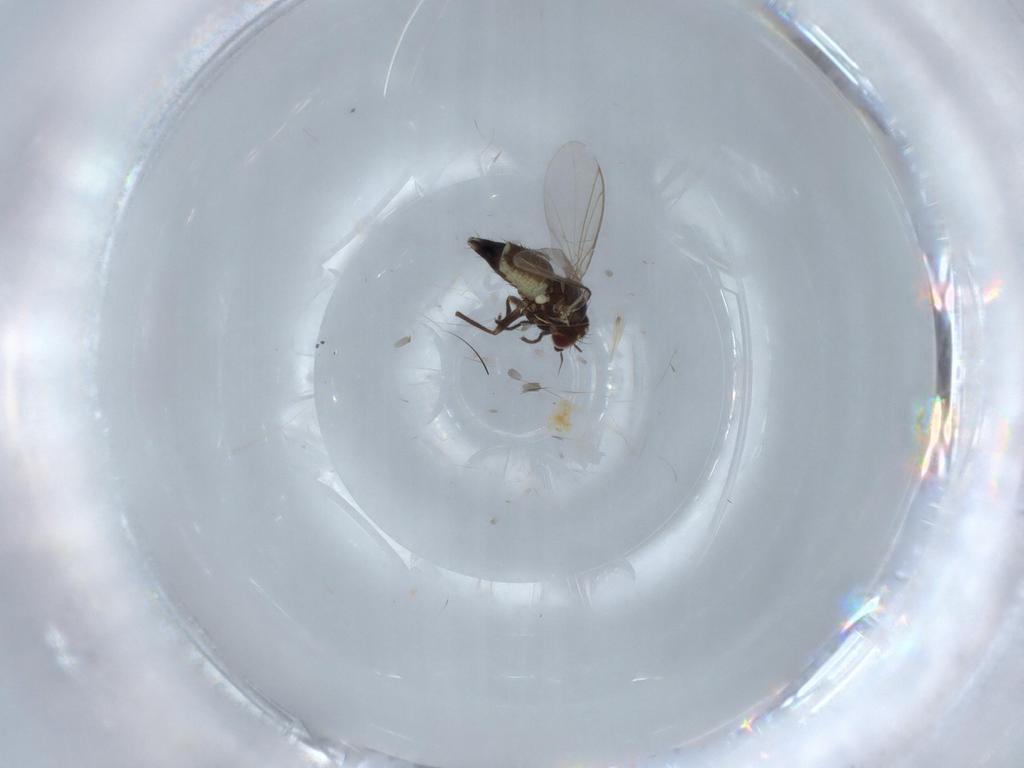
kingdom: Animalia
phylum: Arthropoda
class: Insecta
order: Diptera
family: Agromyzidae
